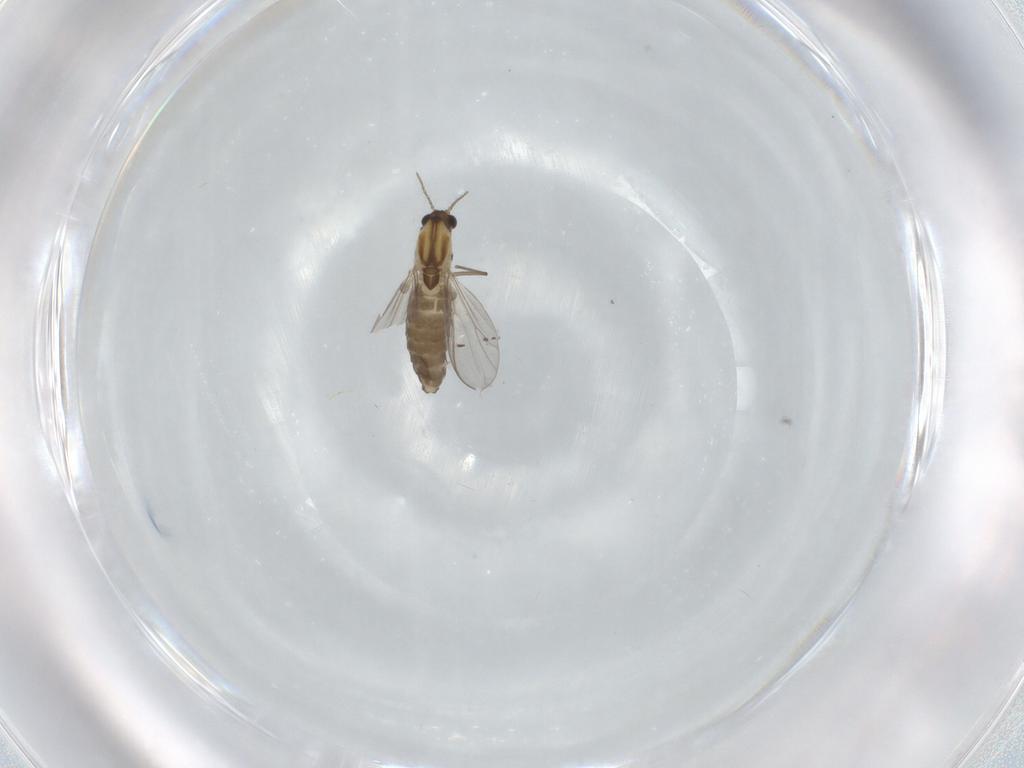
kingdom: Animalia
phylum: Arthropoda
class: Insecta
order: Diptera
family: Chironomidae
